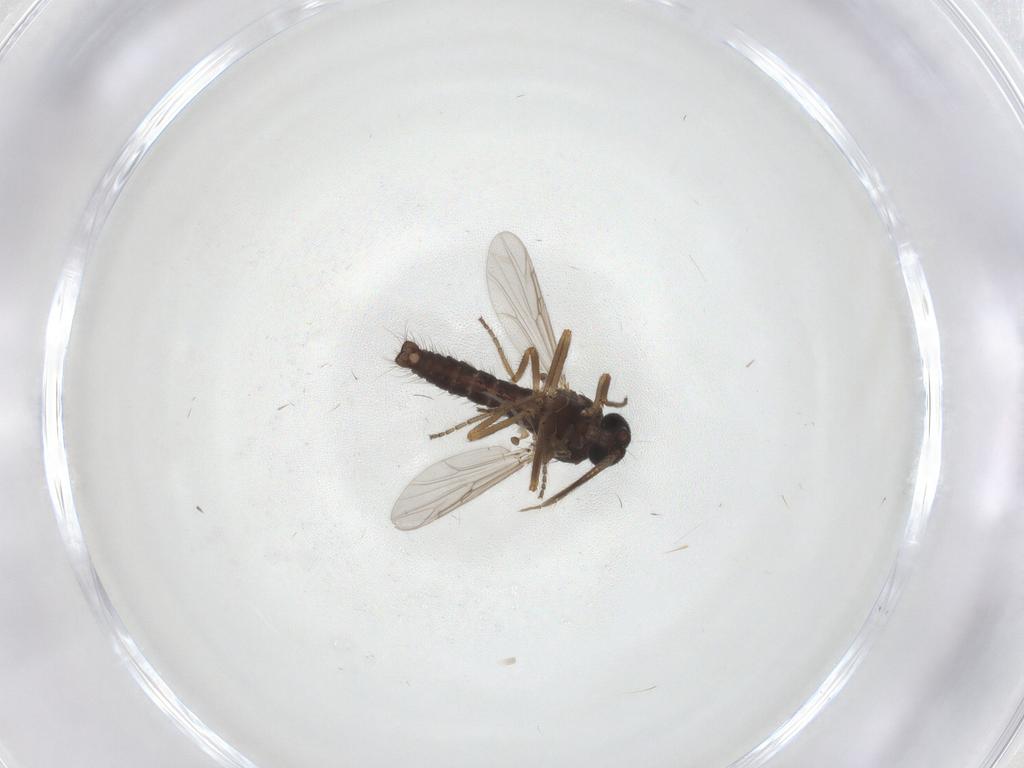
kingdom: Animalia
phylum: Arthropoda
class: Insecta
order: Diptera
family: Ceratopogonidae
